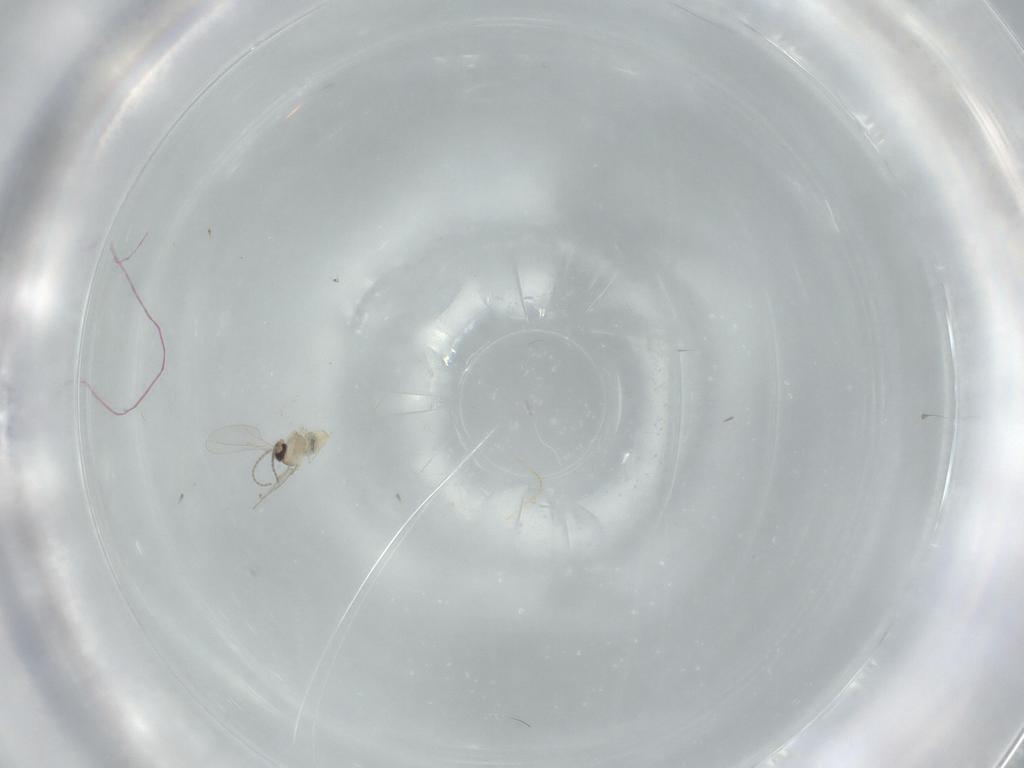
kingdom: Animalia
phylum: Arthropoda
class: Insecta
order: Diptera
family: Cecidomyiidae
